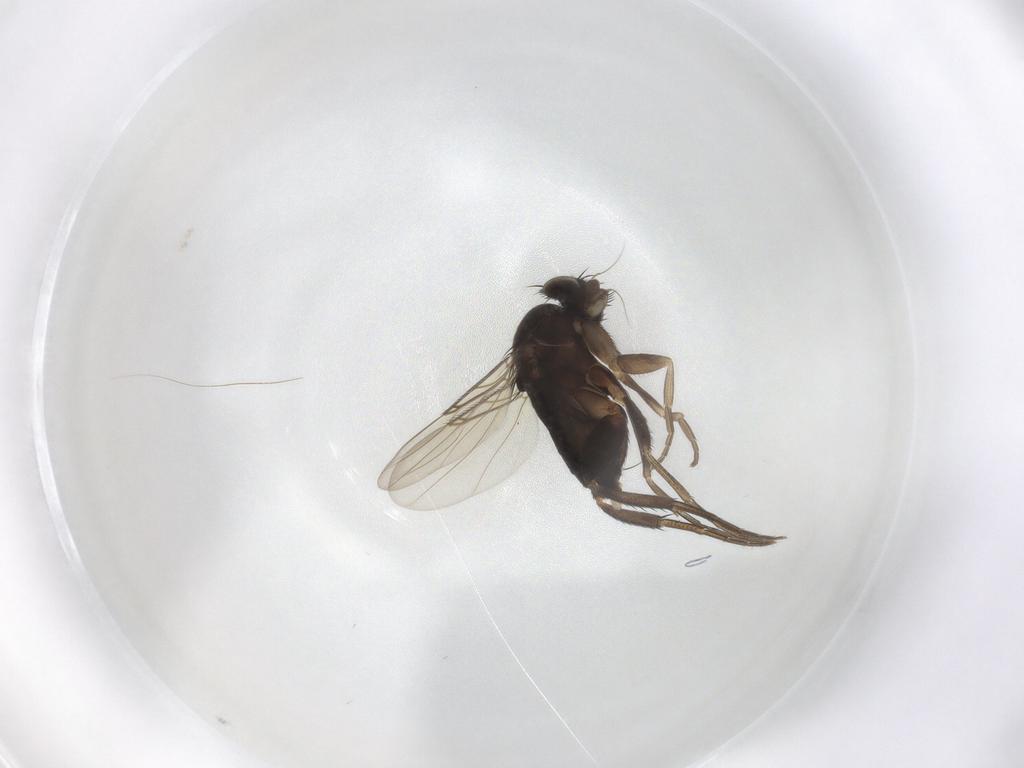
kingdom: Animalia
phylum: Arthropoda
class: Insecta
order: Diptera
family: Phoridae
